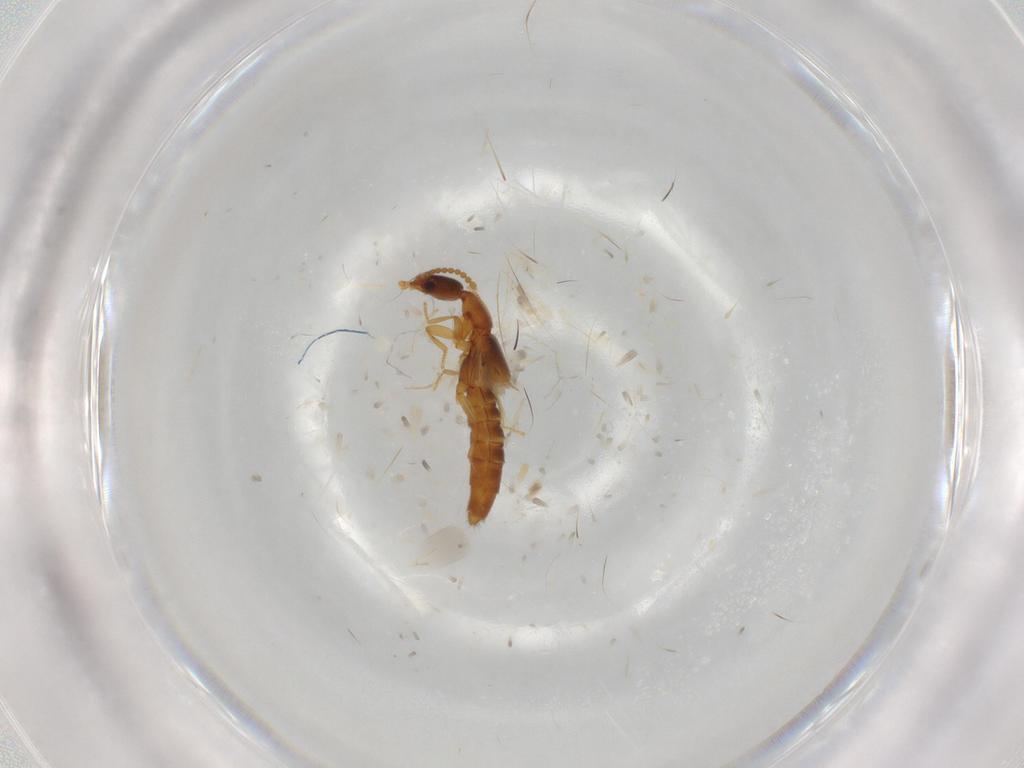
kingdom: Animalia
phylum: Arthropoda
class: Insecta
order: Coleoptera
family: Staphylinidae
